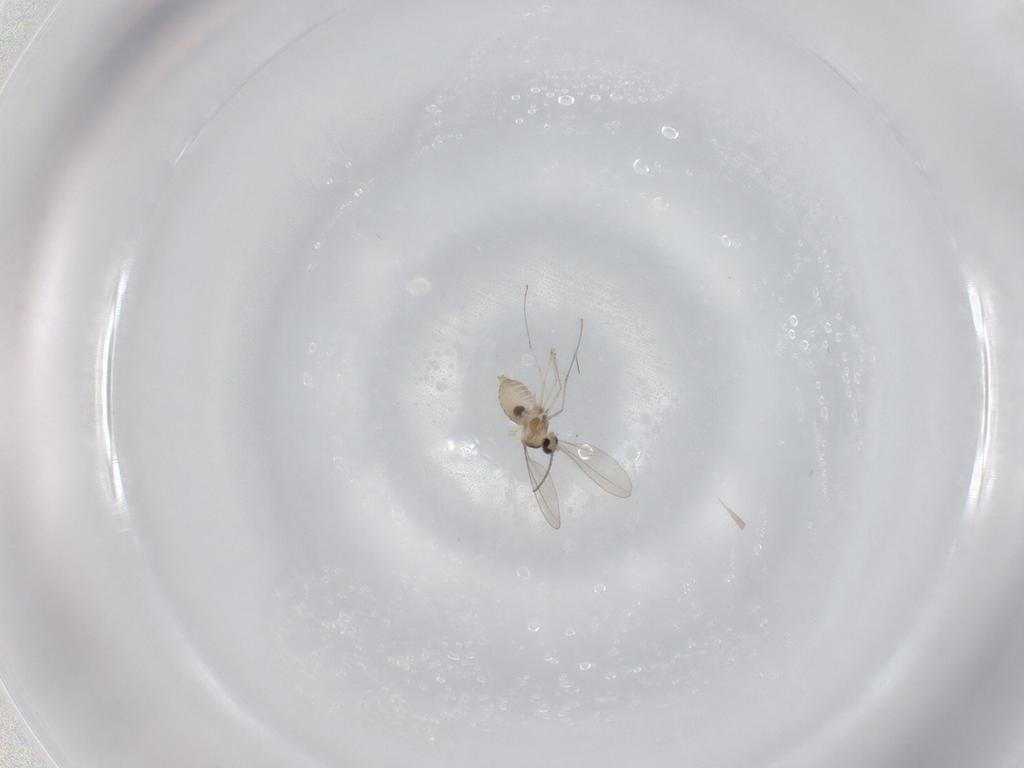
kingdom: Animalia
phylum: Arthropoda
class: Insecta
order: Diptera
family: Cecidomyiidae
